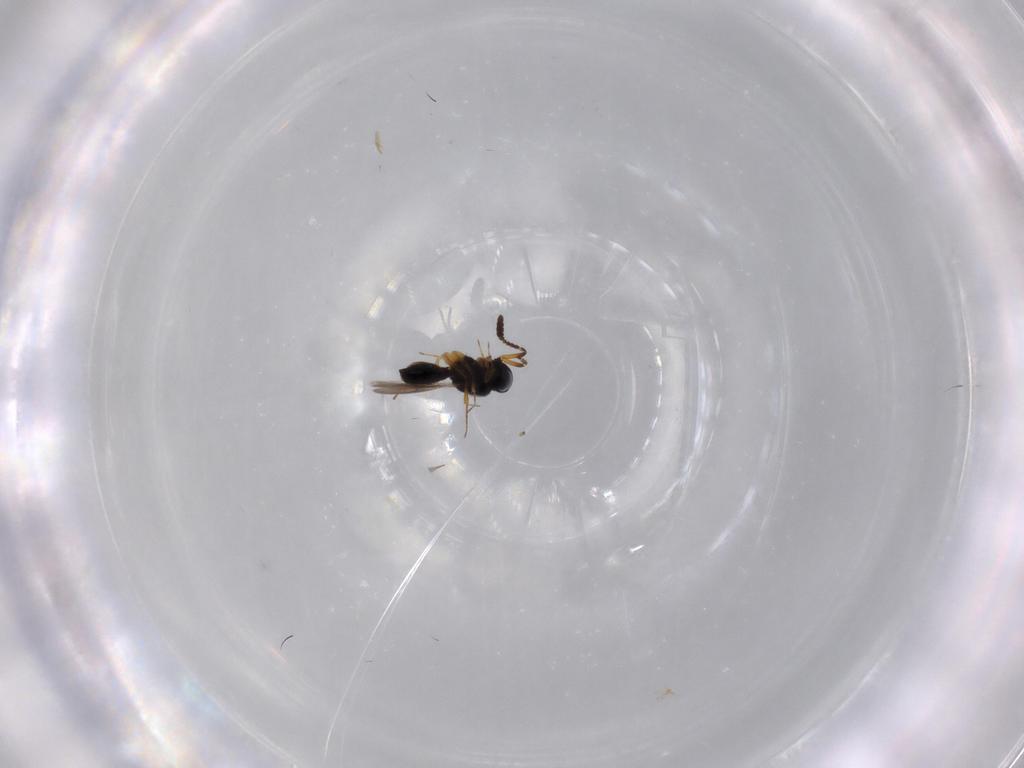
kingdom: Animalia
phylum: Arthropoda
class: Insecta
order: Hymenoptera
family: Scelionidae
